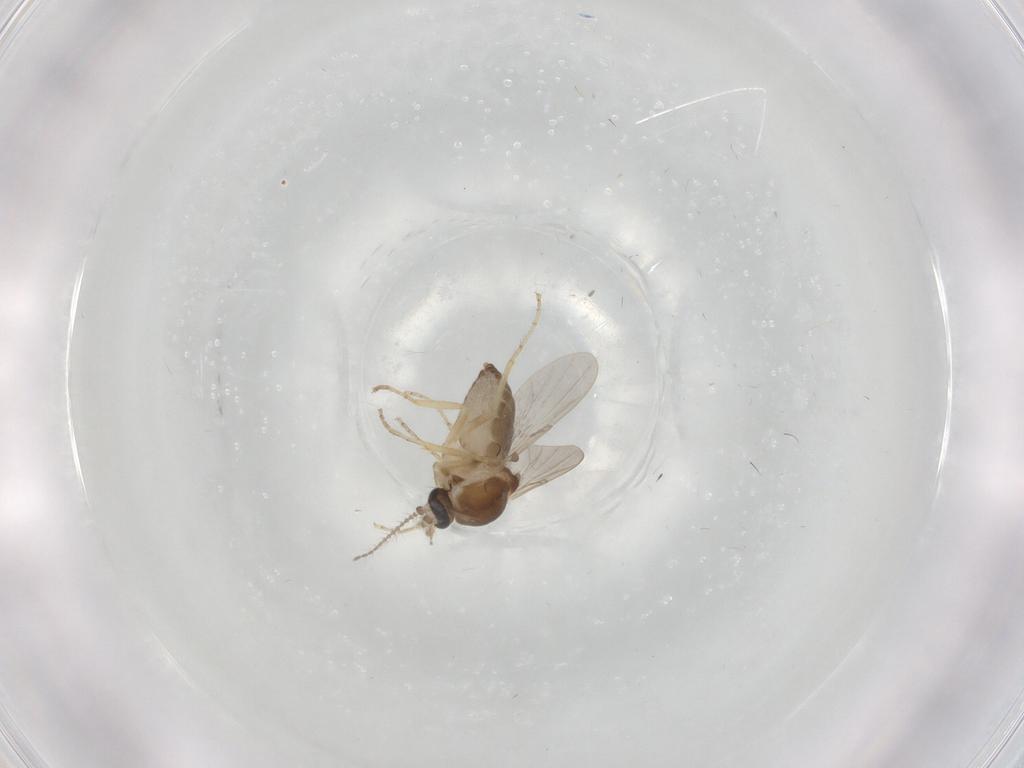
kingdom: Animalia
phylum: Arthropoda
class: Insecta
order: Diptera
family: Ceratopogonidae
